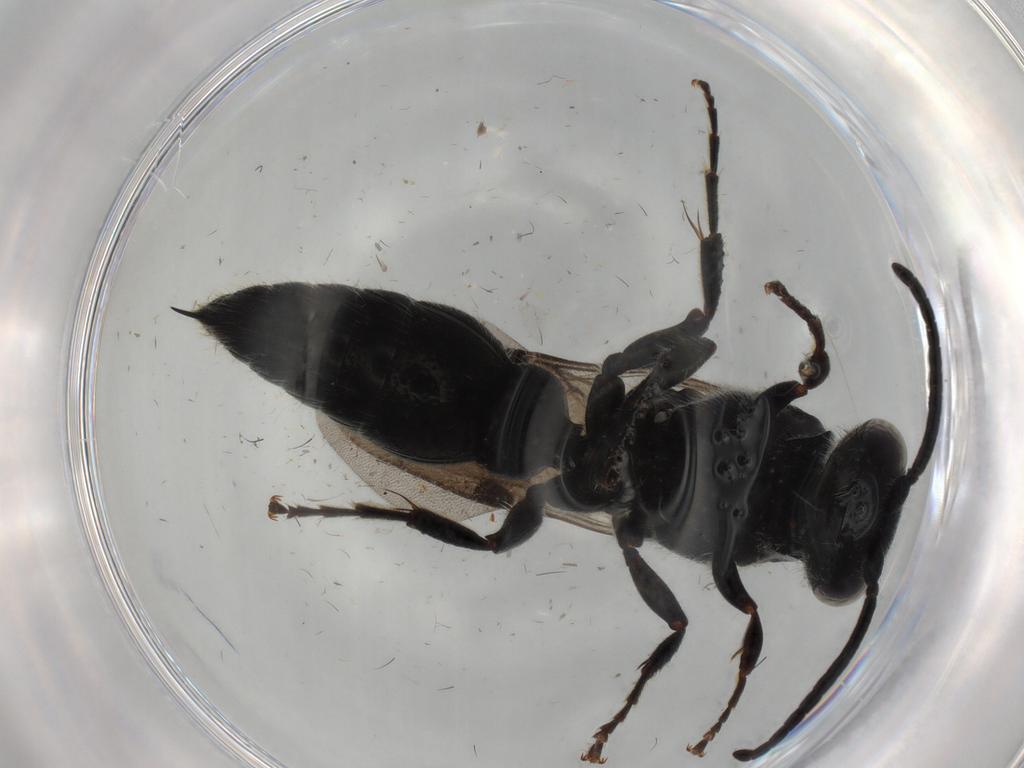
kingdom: Animalia
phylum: Arthropoda
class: Insecta
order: Hymenoptera
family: Tiphiidae
